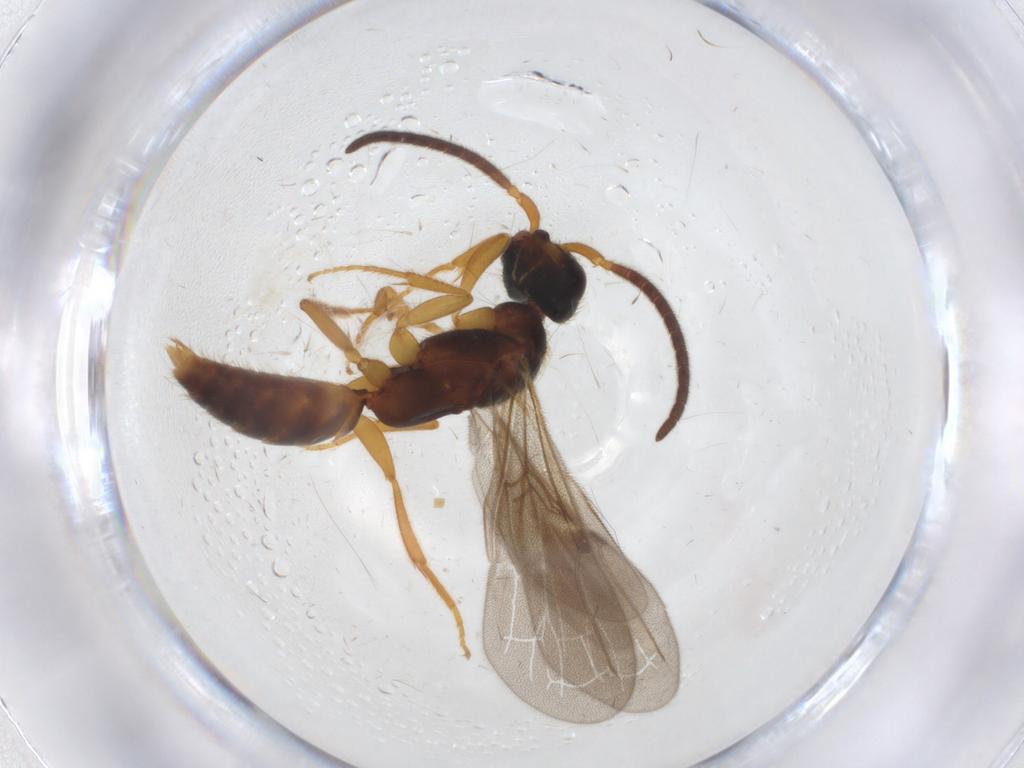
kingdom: Animalia
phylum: Arthropoda
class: Insecta
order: Hymenoptera
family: Bethylidae
